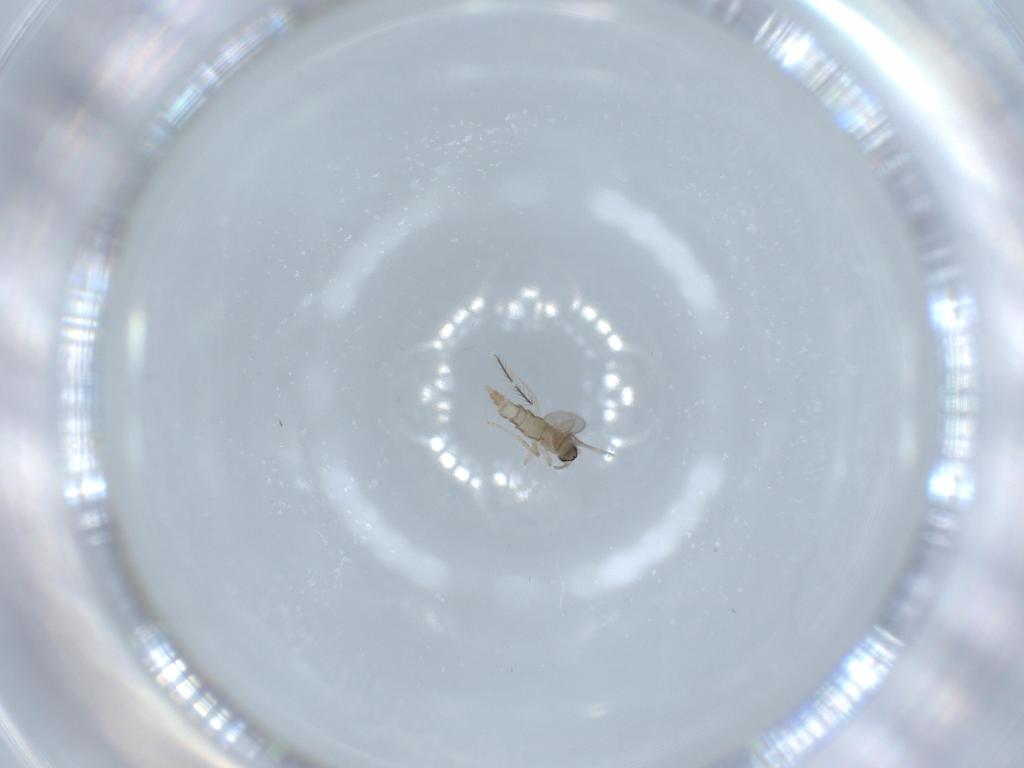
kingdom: Animalia
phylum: Arthropoda
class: Insecta
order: Diptera
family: Cecidomyiidae
